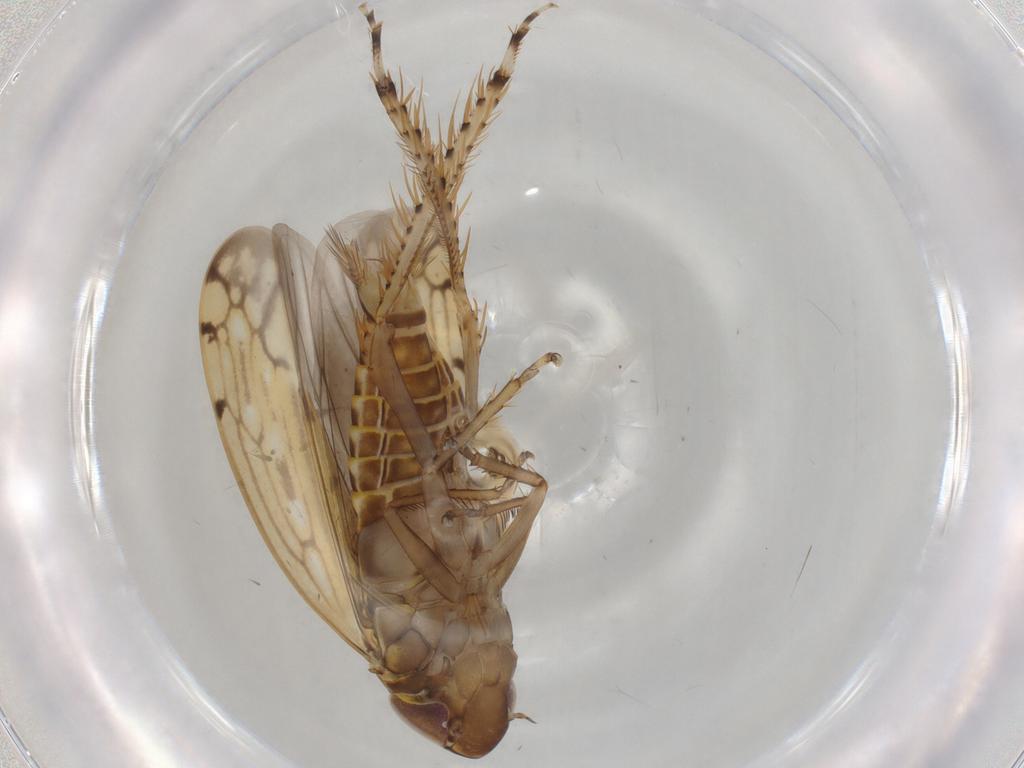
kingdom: Animalia
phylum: Arthropoda
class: Insecta
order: Hemiptera
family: Cicadellidae
